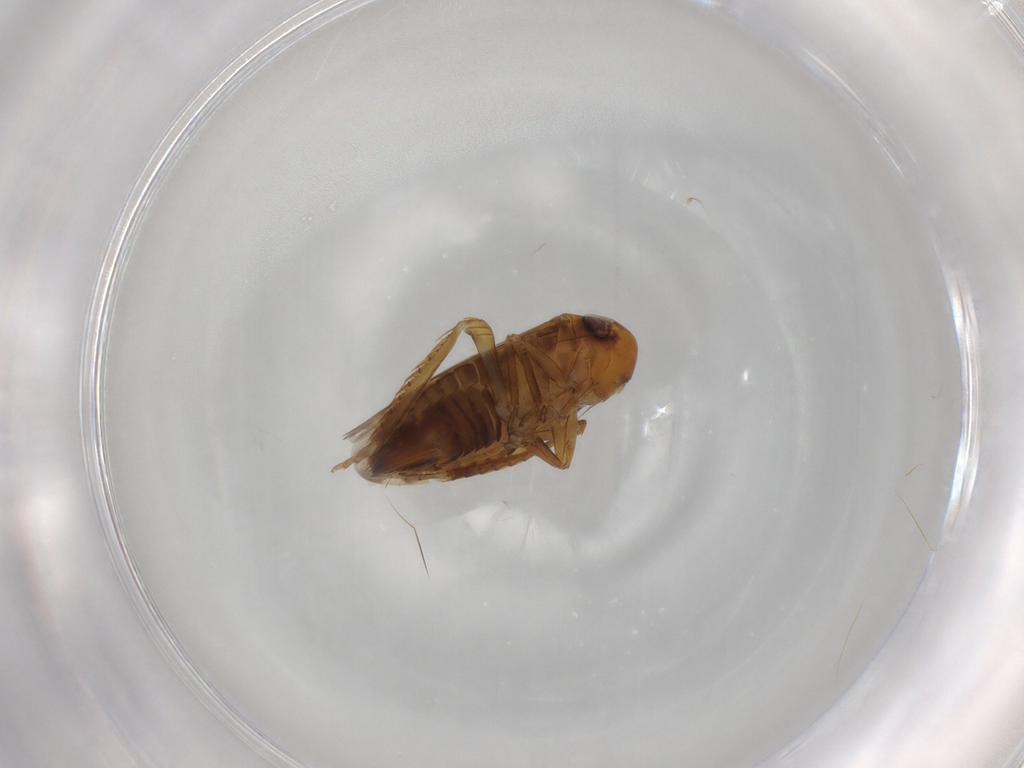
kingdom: Animalia
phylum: Arthropoda
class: Insecta
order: Hemiptera
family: Cicadellidae
